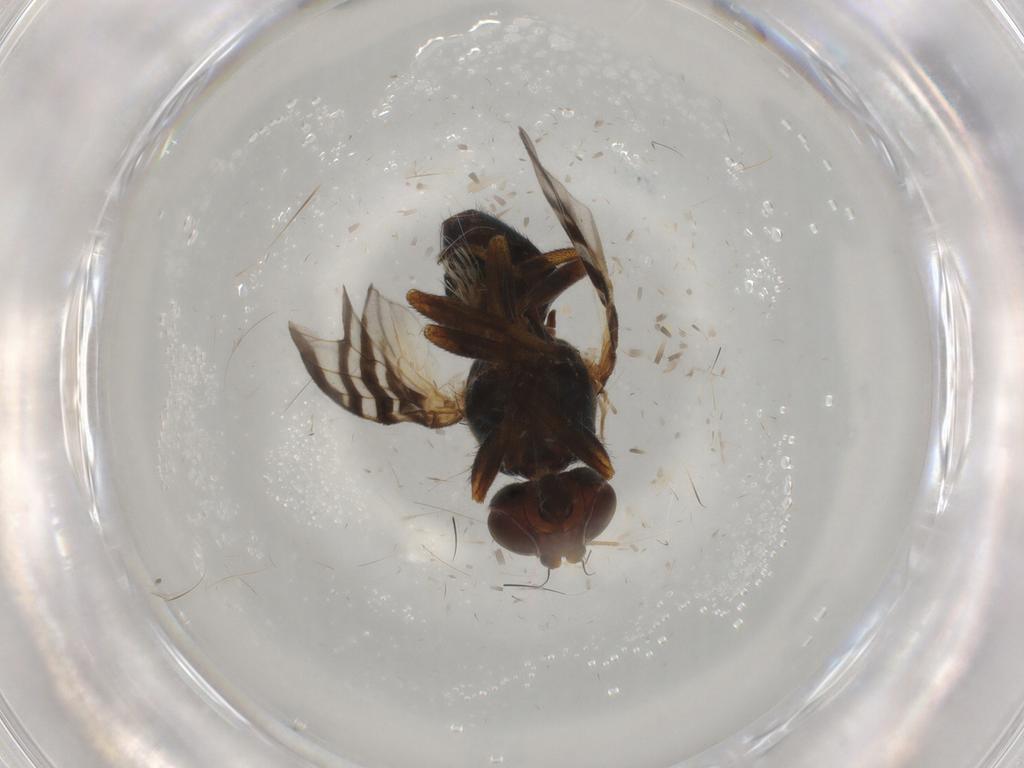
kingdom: Animalia
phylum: Arthropoda
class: Insecta
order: Diptera
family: Platystomatidae
